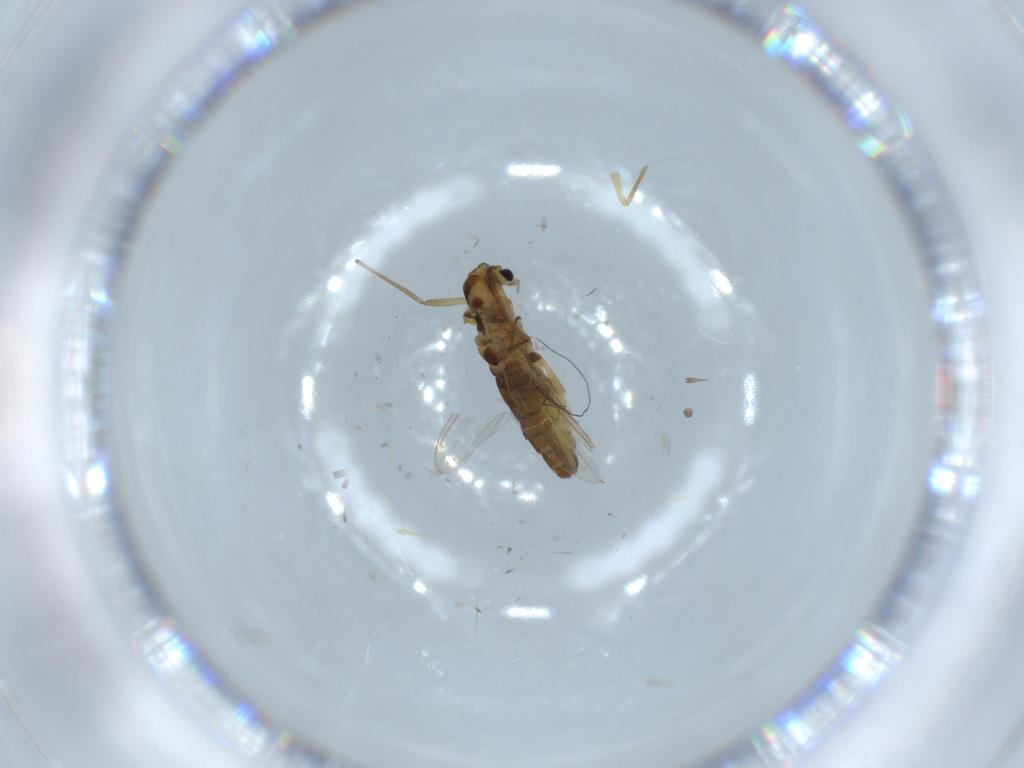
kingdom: Animalia
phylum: Arthropoda
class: Insecta
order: Diptera
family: Chironomidae
